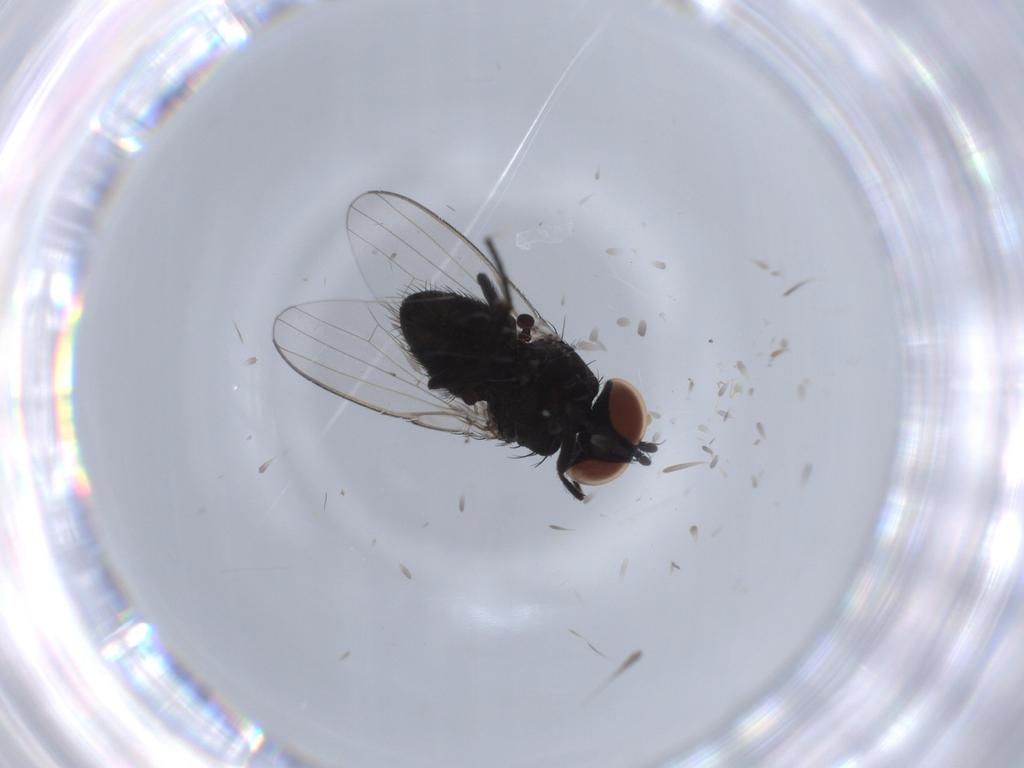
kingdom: Animalia
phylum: Arthropoda
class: Insecta
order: Diptera
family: Milichiidae
